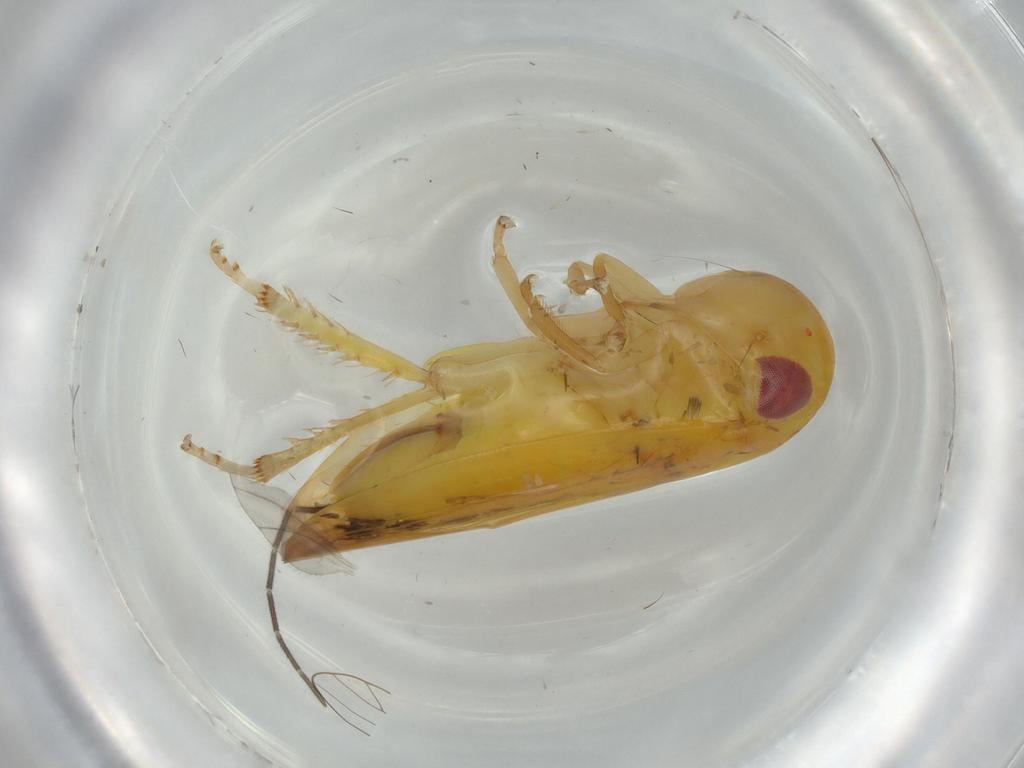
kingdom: Animalia
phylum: Arthropoda
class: Insecta
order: Hemiptera
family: Cicadellidae
